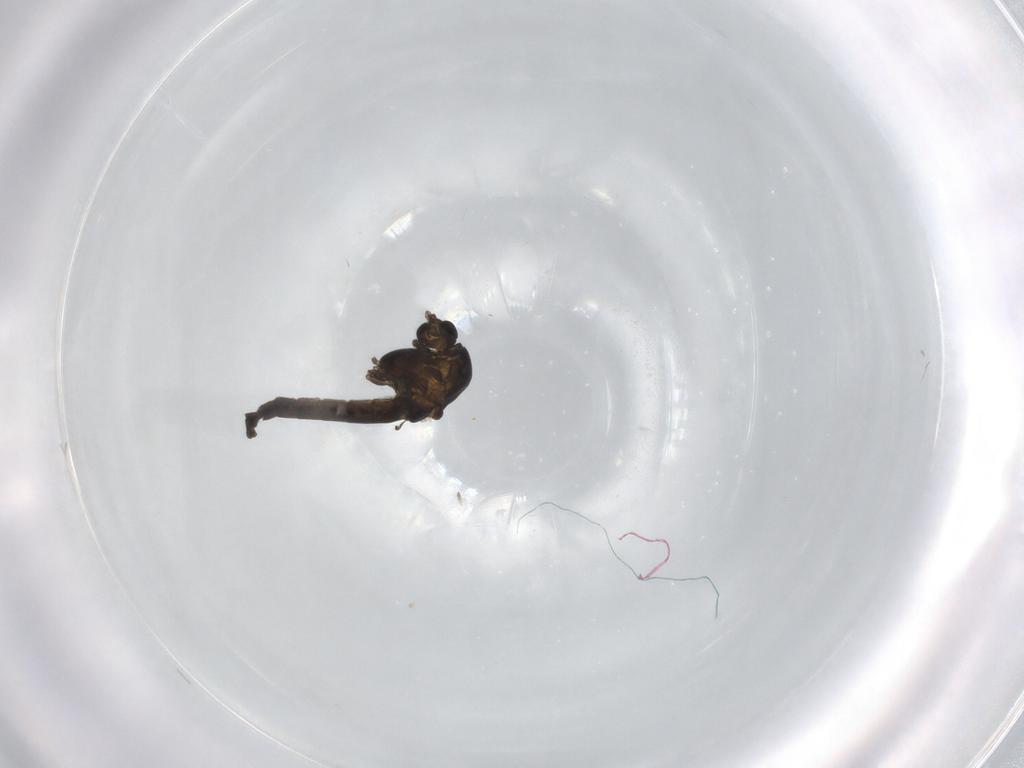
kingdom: Animalia
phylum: Arthropoda
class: Insecta
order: Diptera
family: Chironomidae
